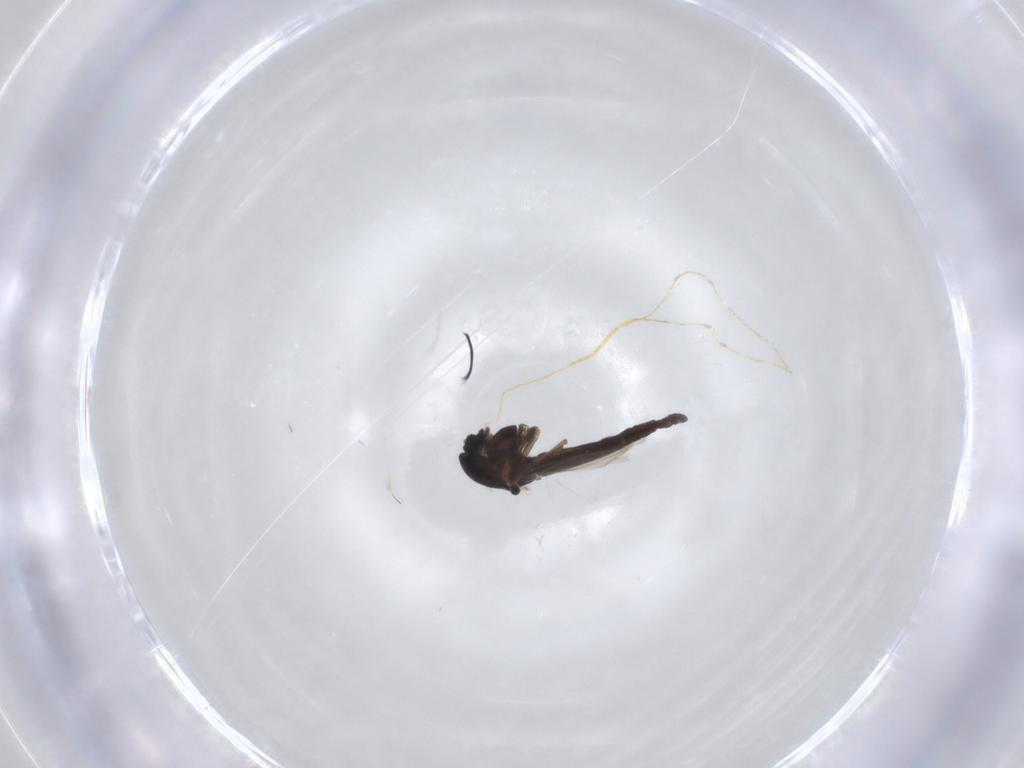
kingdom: Animalia
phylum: Arthropoda
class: Insecta
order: Diptera
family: Chironomidae
